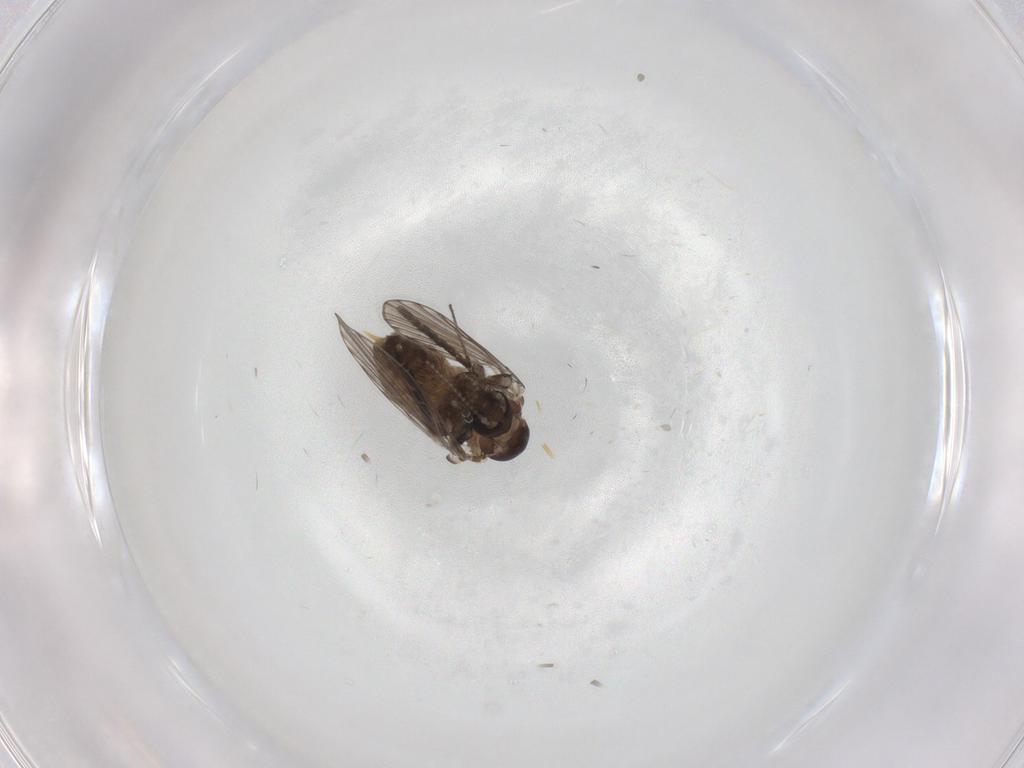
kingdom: Animalia
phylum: Arthropoda
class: Insecta
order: Diptera
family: Psychodidae
